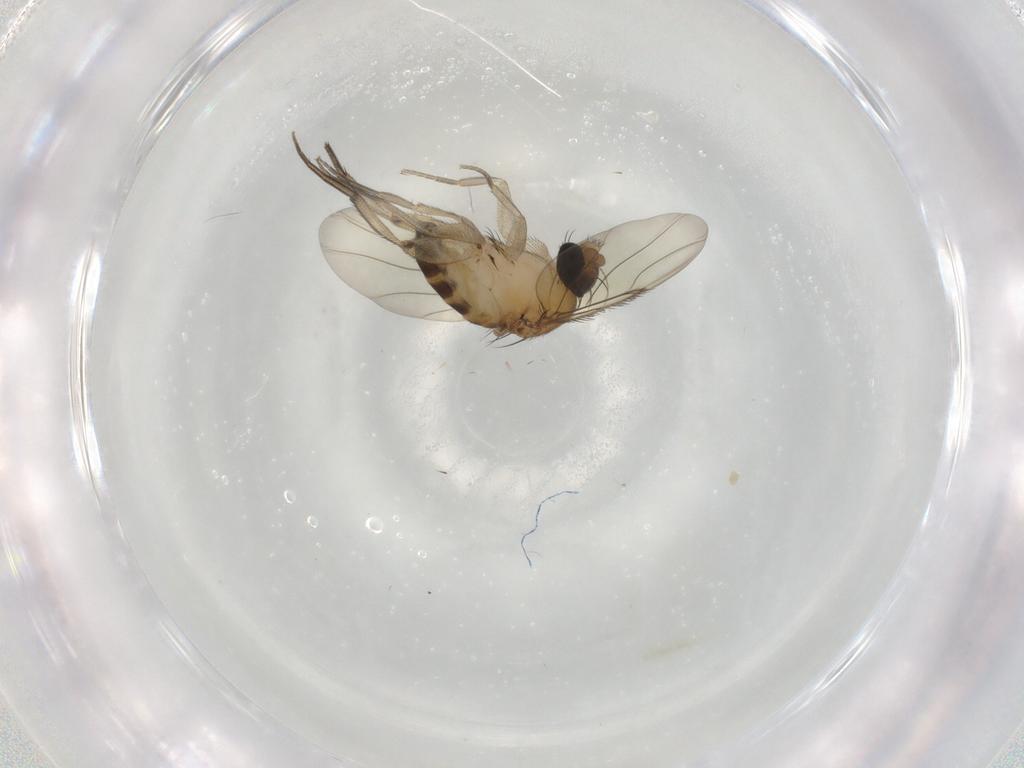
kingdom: Animalia
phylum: Arthropoda
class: Insecta
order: Diptera
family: Phoridae
